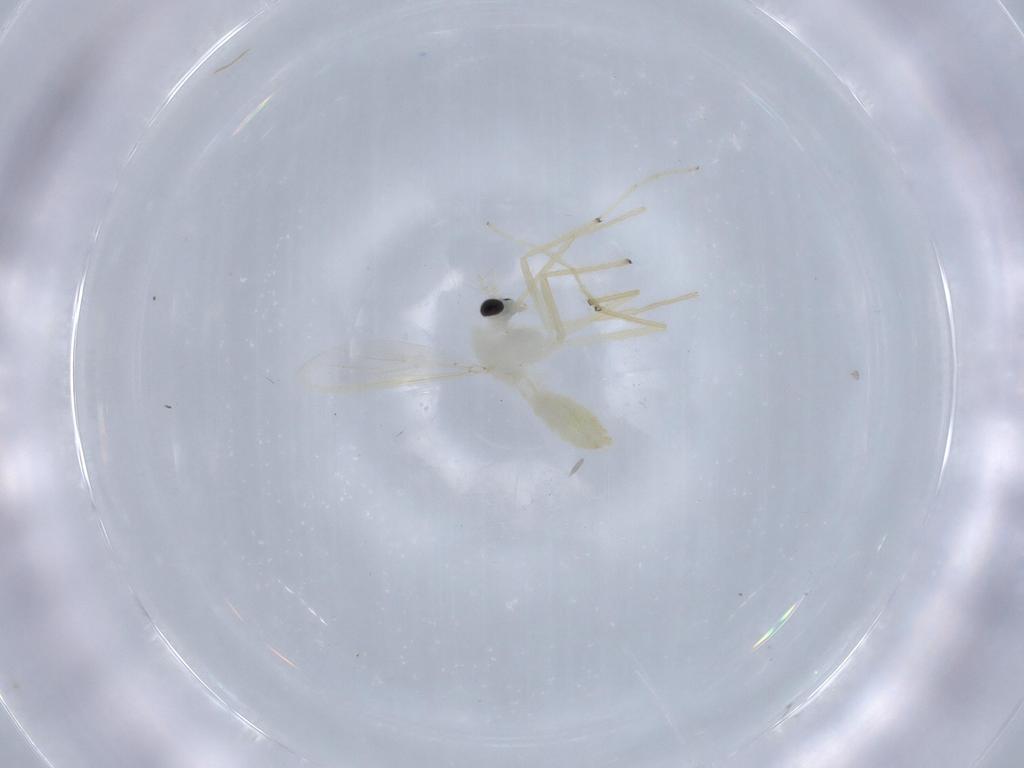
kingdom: Animalia
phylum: Arthropoda
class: Insecta
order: Diptera
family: Chironomidae
